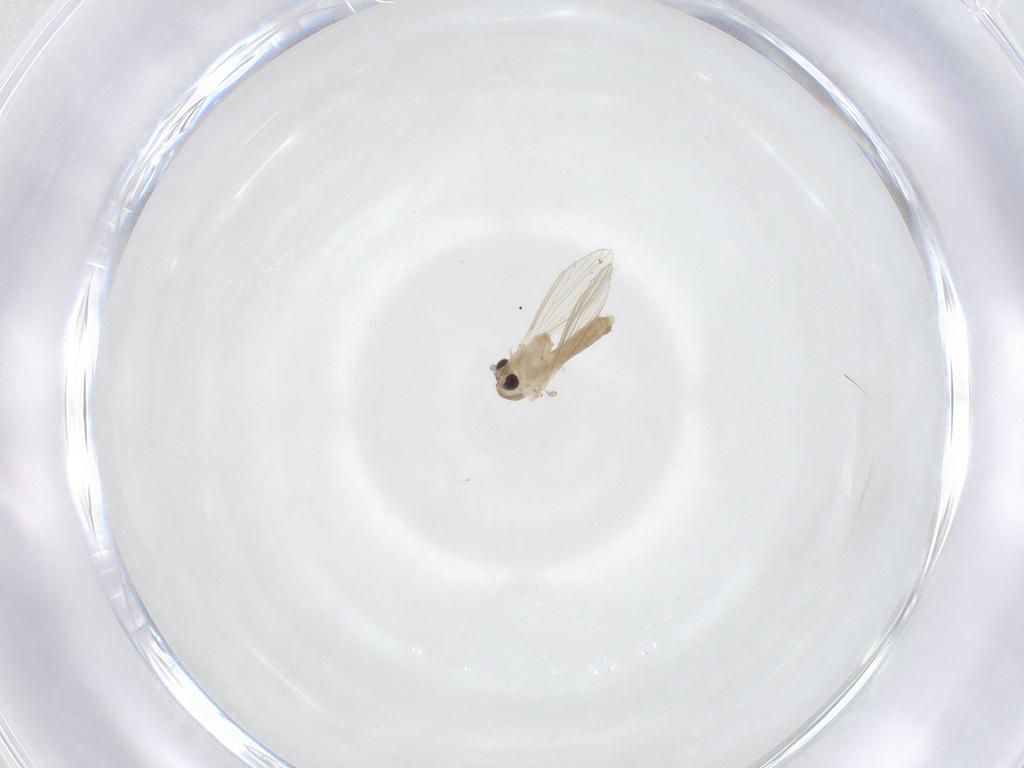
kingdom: Animalia
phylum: Arthropoda
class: Insecta
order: Diptera
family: Psychodidae
